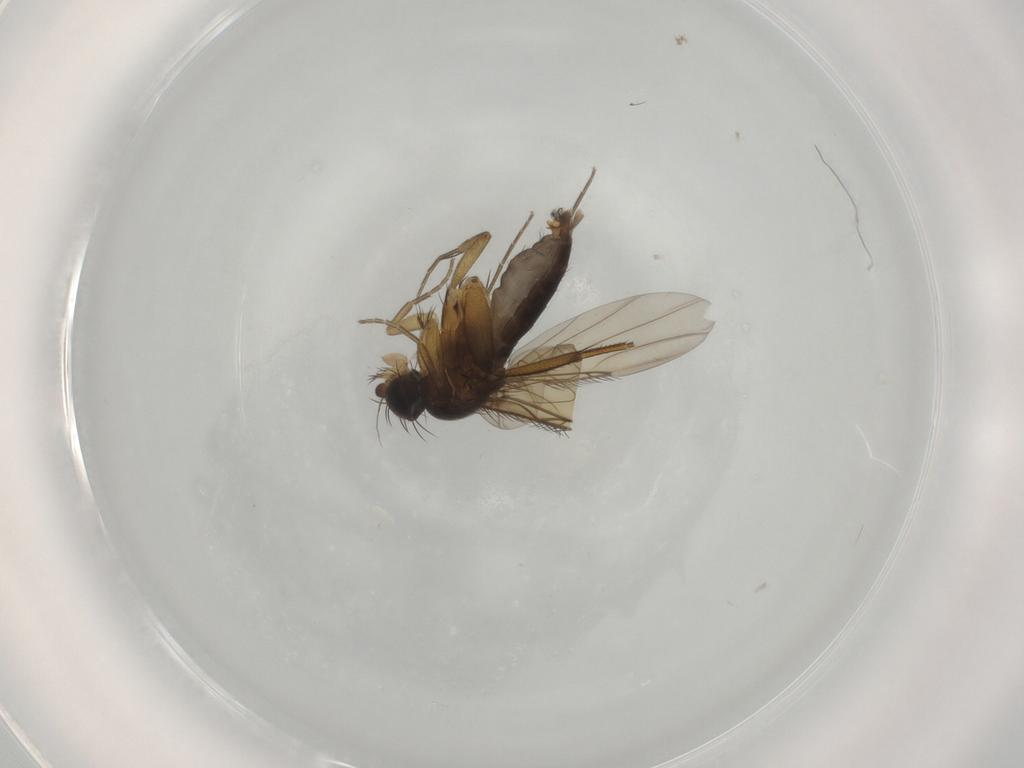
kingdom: Animalia
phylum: Arthropoda
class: Insecta
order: Diptera
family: Phoridae
